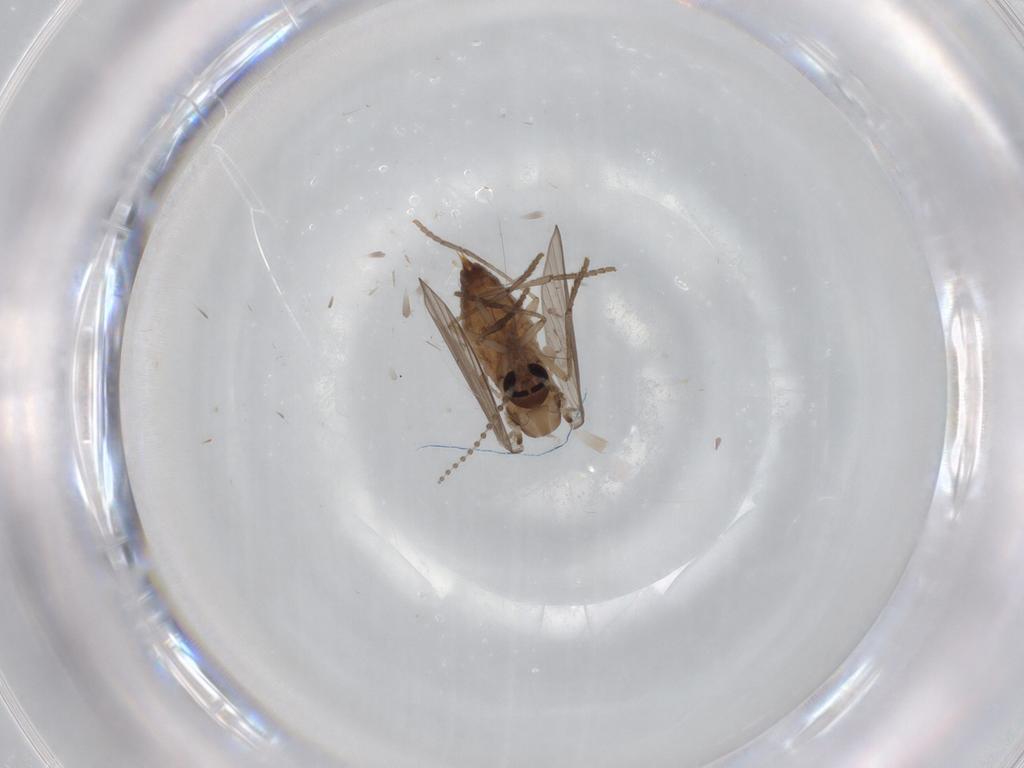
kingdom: Animalia
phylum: Arthropoda
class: Insecta
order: Diptera
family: Psychodidae
